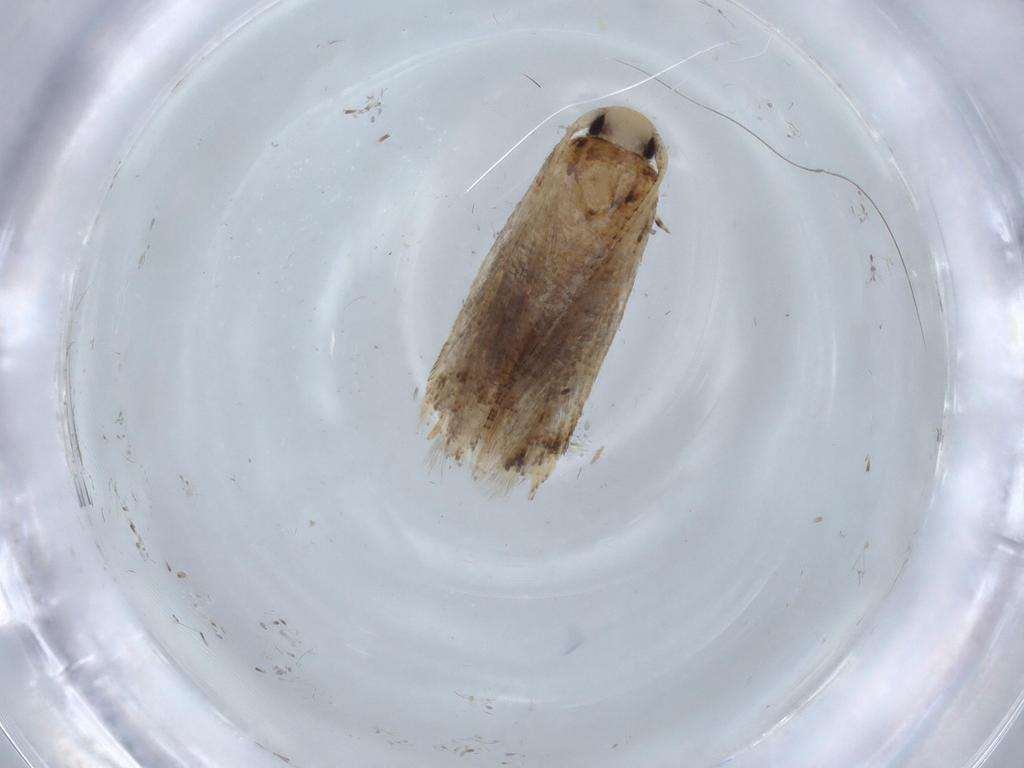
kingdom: Animalia
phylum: Arthropoda
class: Insecta
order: Lepidoptera
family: Gelechiidae
